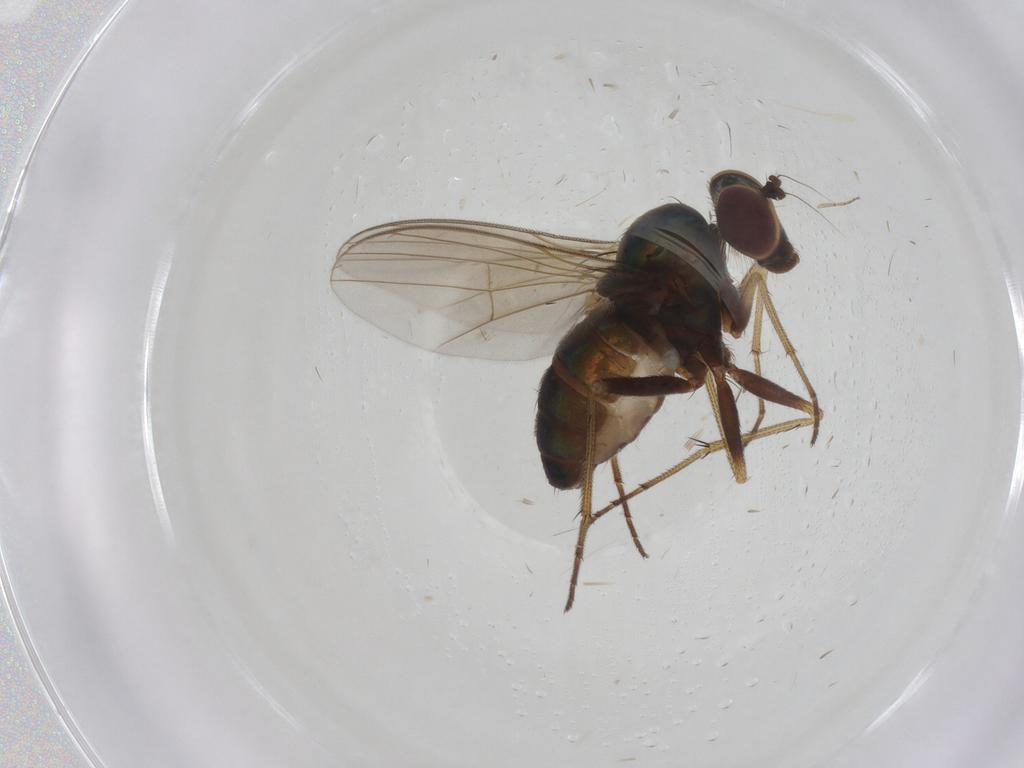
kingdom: Animalia
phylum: Arthropoda
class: Insecta
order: Diptera
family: Dolichopodidae
